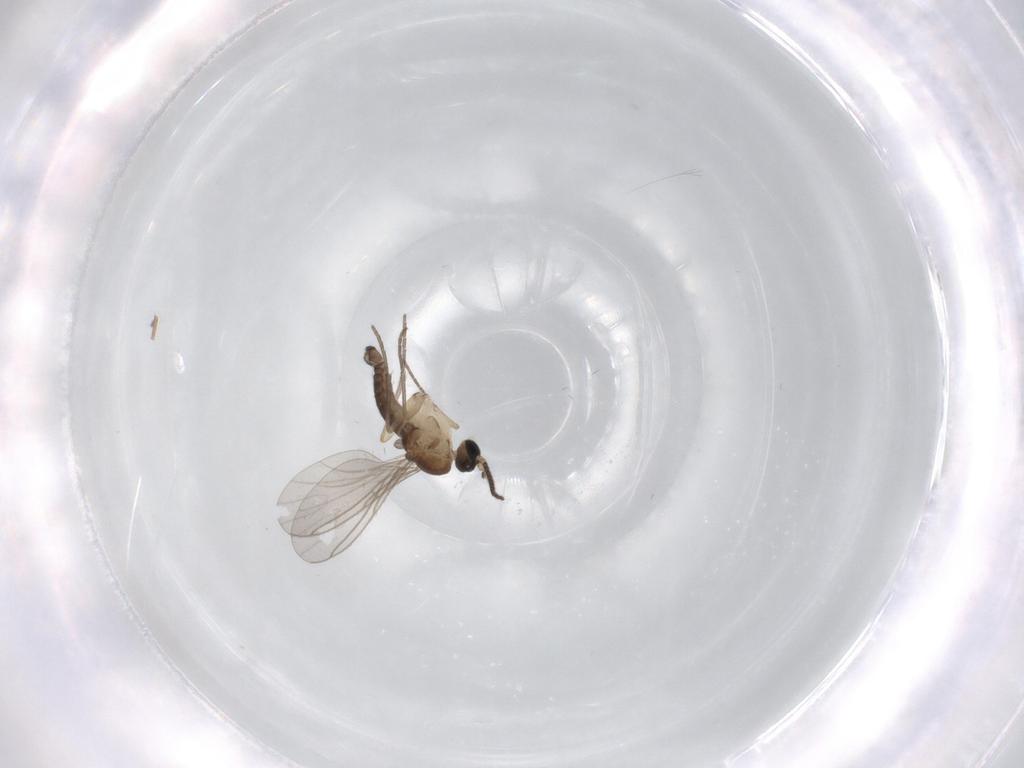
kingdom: Animalia
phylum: Arthropoda
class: Insecta
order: Diptera
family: Sciaridae
